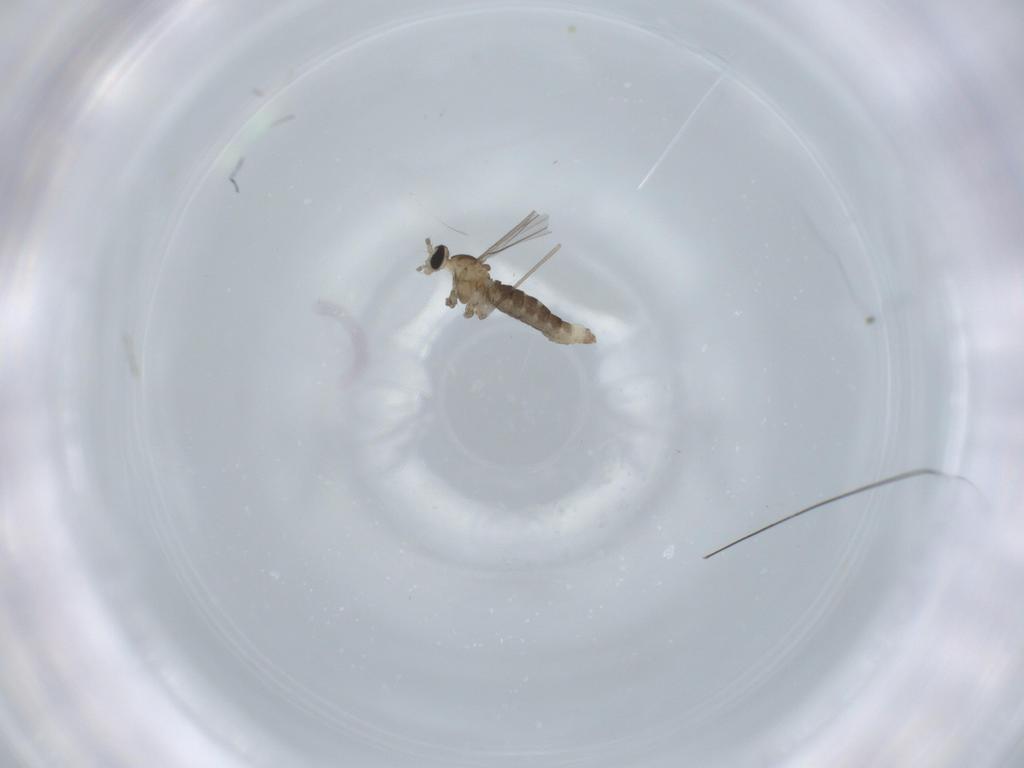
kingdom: Animalia
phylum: Arthropoda
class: Insecta
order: Diptera
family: Cecidomyiidae
